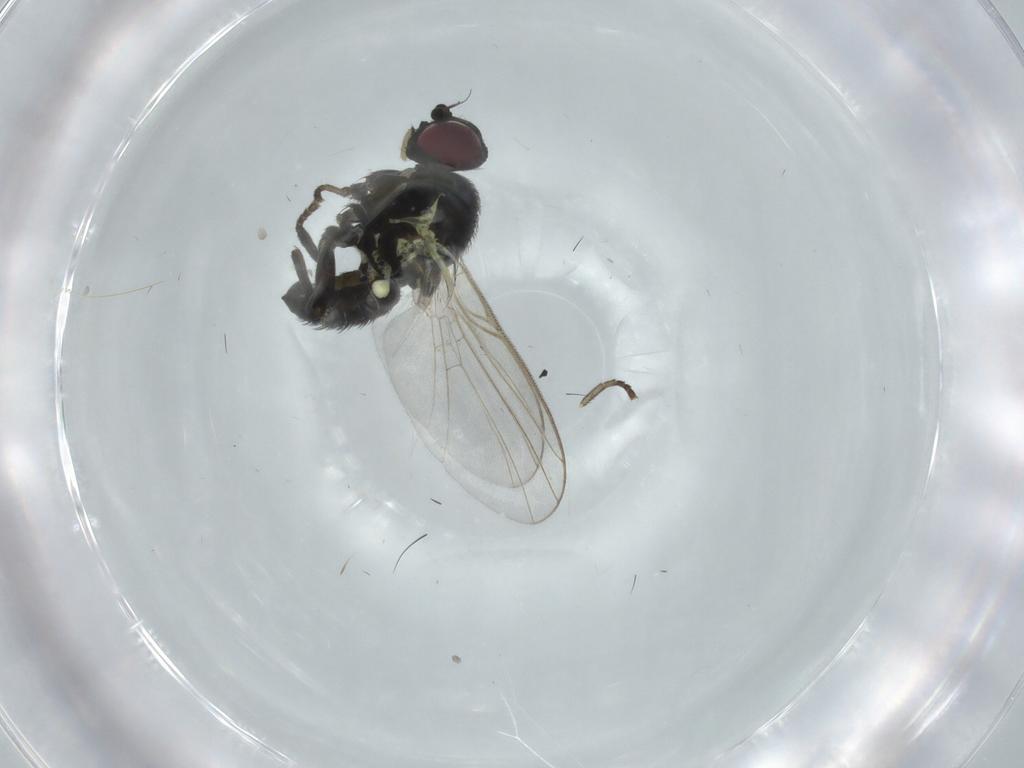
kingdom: Animalia
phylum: Arthropoda
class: Insecta
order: Diptera
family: Agromyzidae
